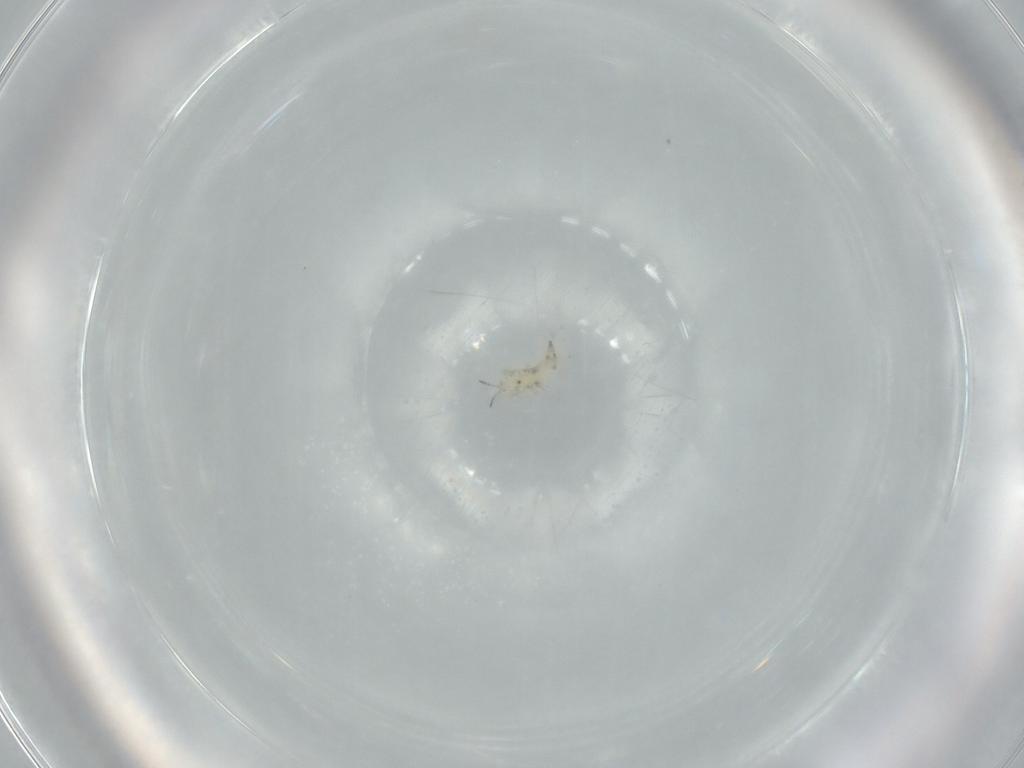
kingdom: Animalia
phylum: Arthropoda
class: Insecta
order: Thysanoptera
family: Phlaeothripidae
